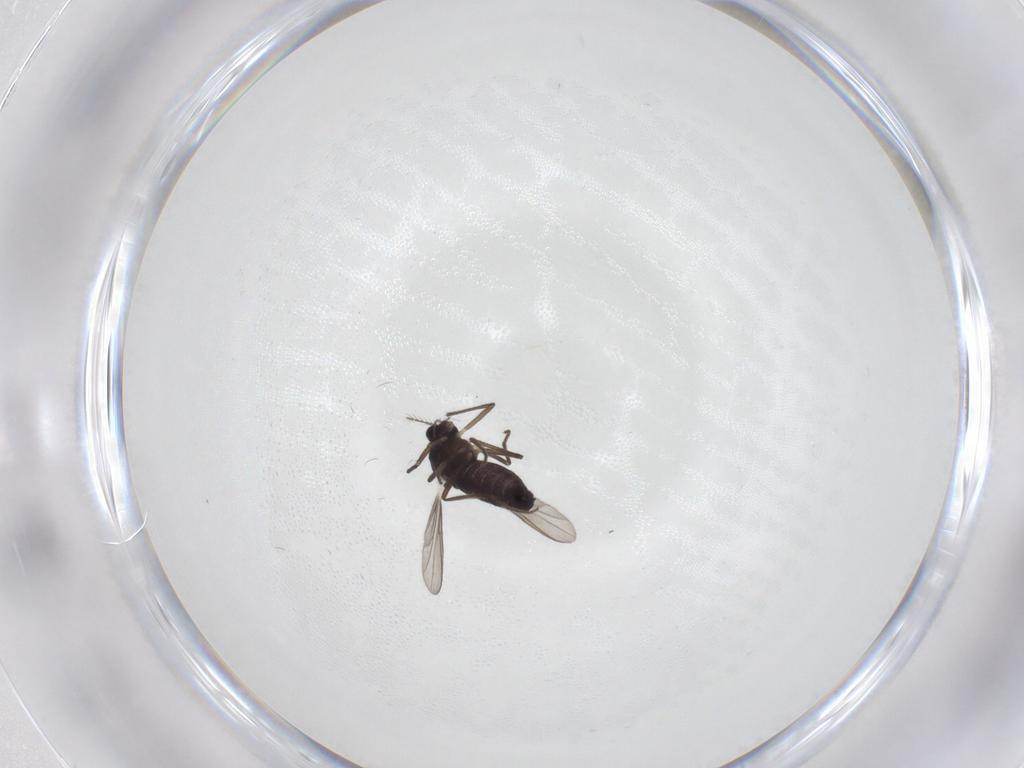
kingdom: Animalia
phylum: Arthropoda
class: Insecta
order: Diptera
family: Chironomidae
